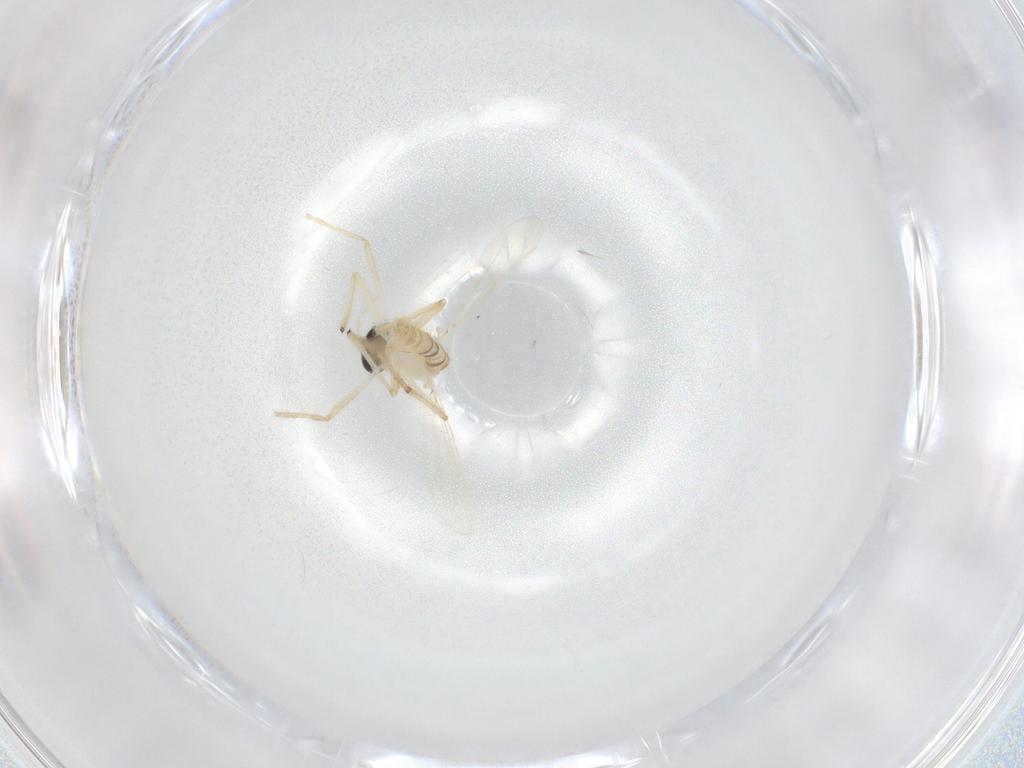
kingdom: Animalia
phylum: Arthropoda
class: Insecta
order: Diptera
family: Chironomidae
